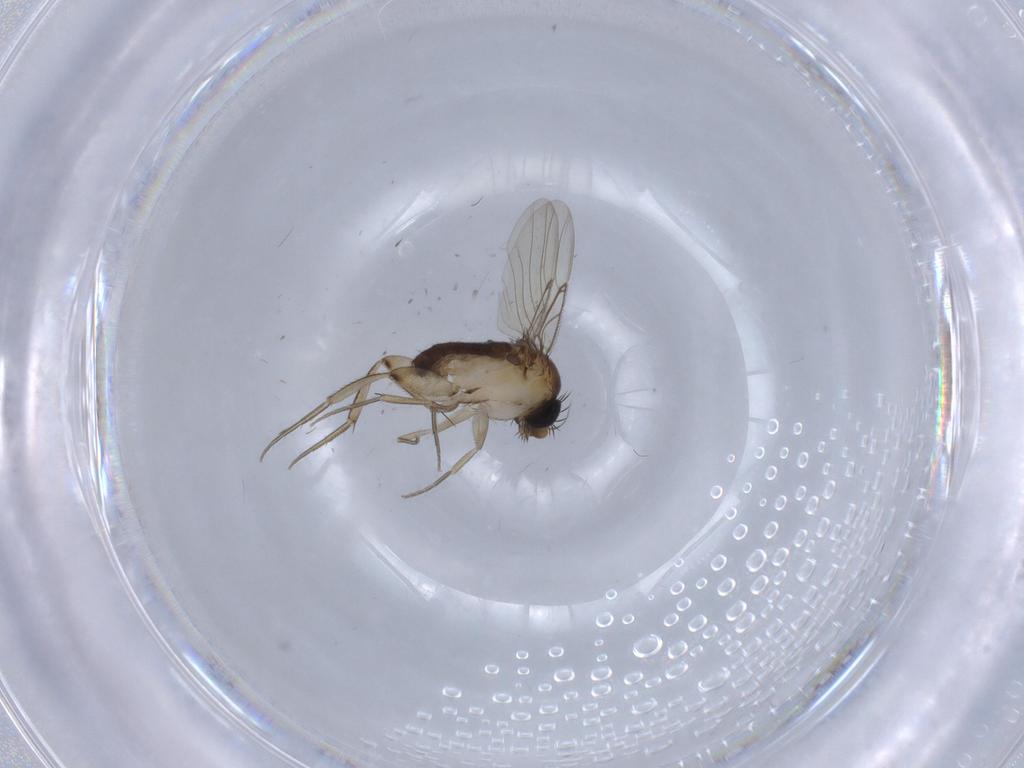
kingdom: Animalia
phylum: Arthropoda
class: Insecta
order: Diptera
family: Phoridae
